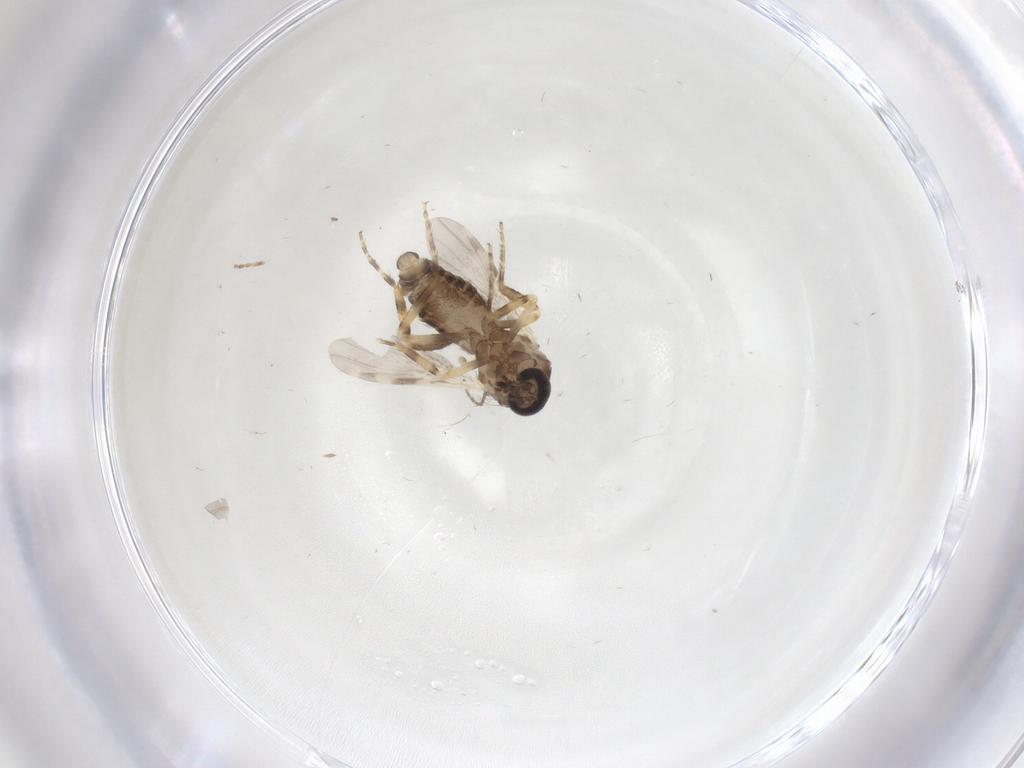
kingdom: Animalia
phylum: Arthropoda
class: Insecta
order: Diptera
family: Ceratopogonidae
